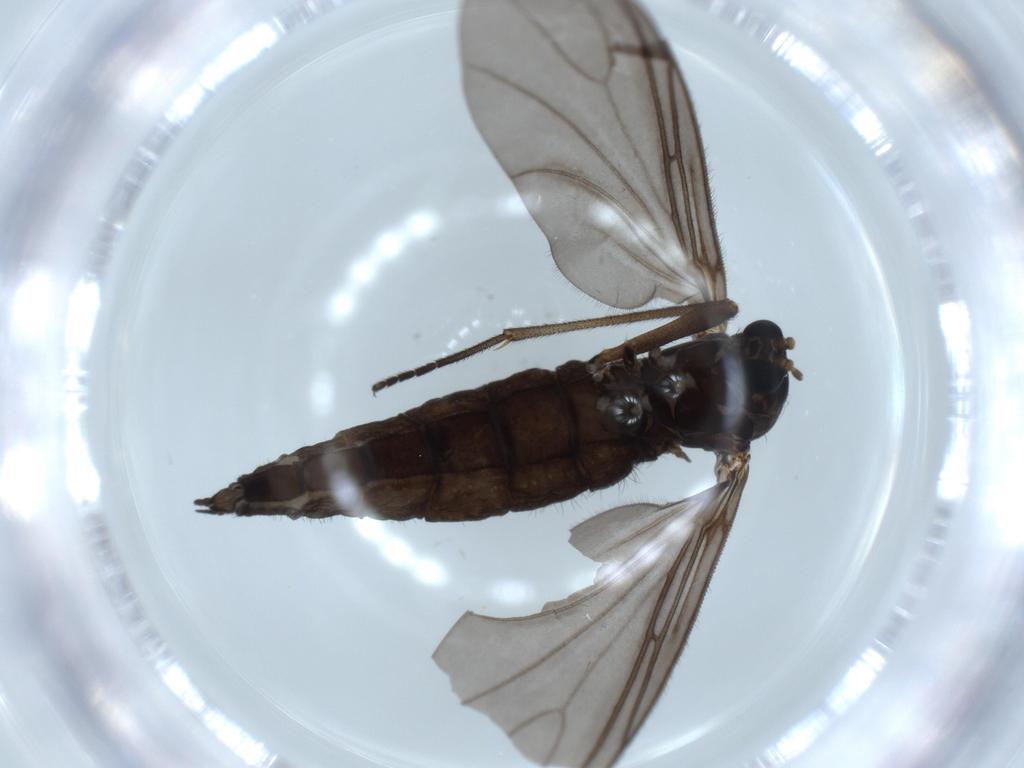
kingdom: Animalia
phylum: Arthropoda
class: Insecta
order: Diptera
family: Sciaridae
